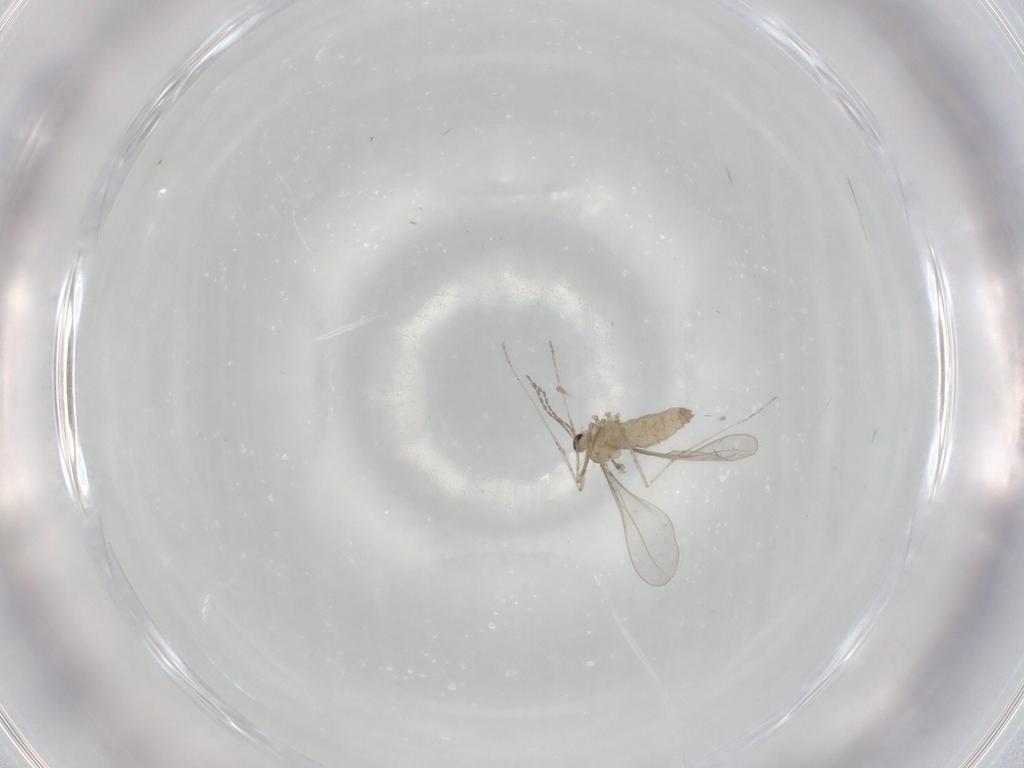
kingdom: Animalia
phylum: Arthropoda
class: Insecta
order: Diptera
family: Cecidomyiidae
